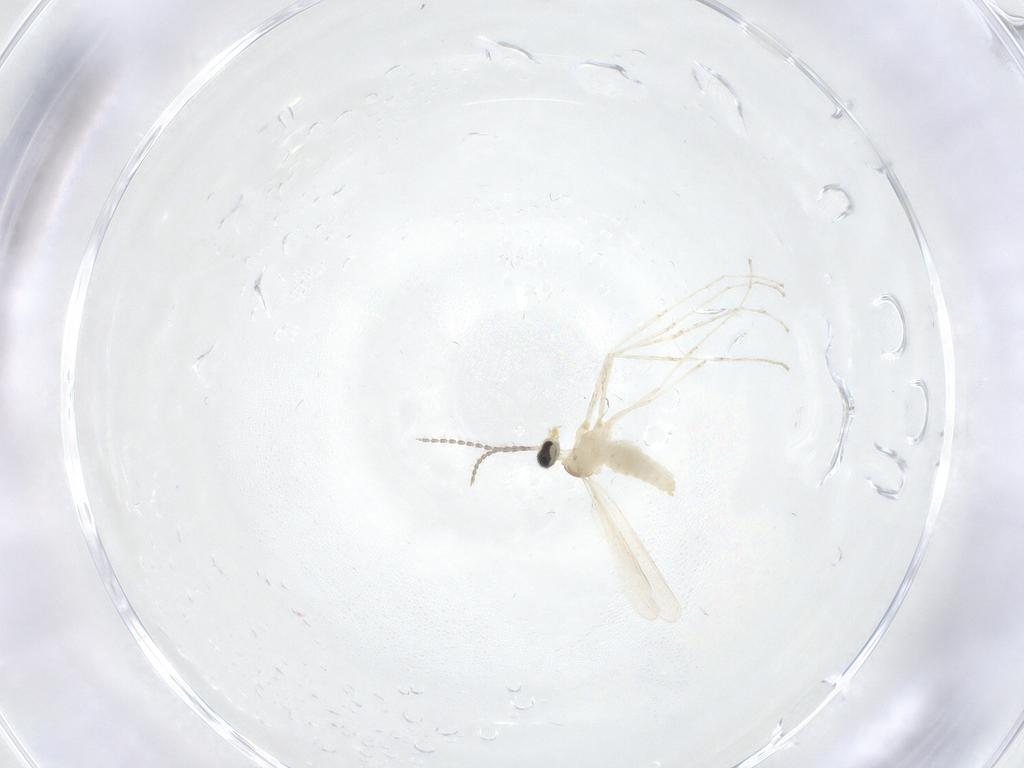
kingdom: Animalia
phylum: Arthropoda
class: Insecta
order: Diptera
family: Cecidomyiidae
